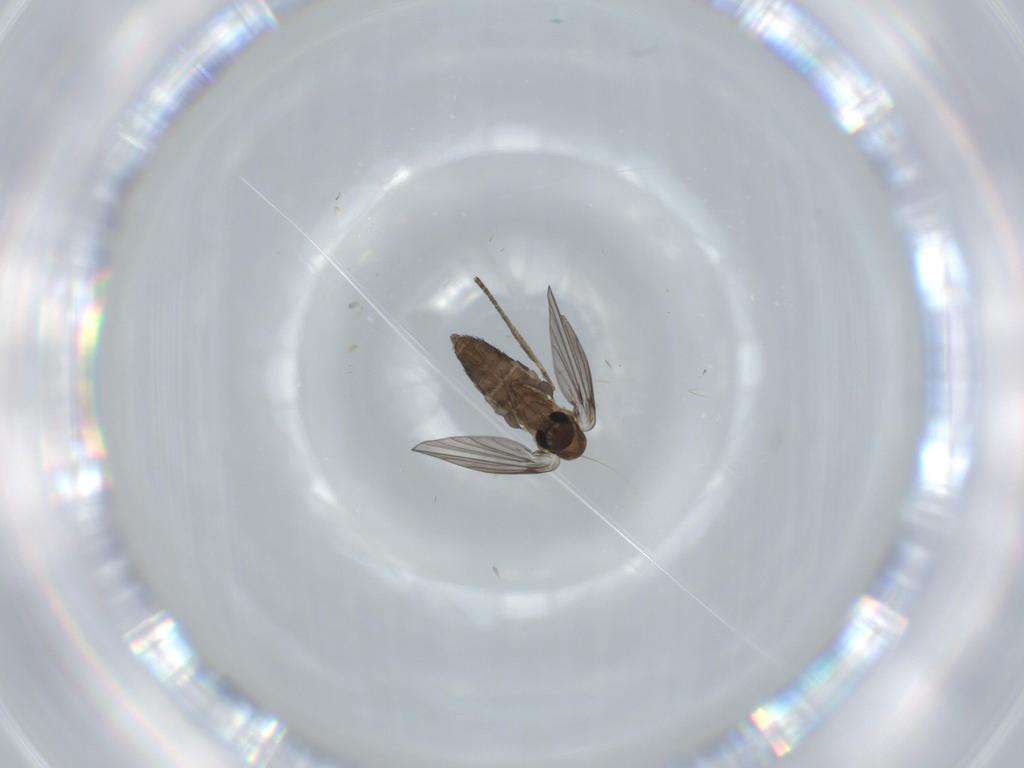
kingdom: Animalia
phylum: Arthropoda
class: Insecta
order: Diptera
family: Psychodidae
